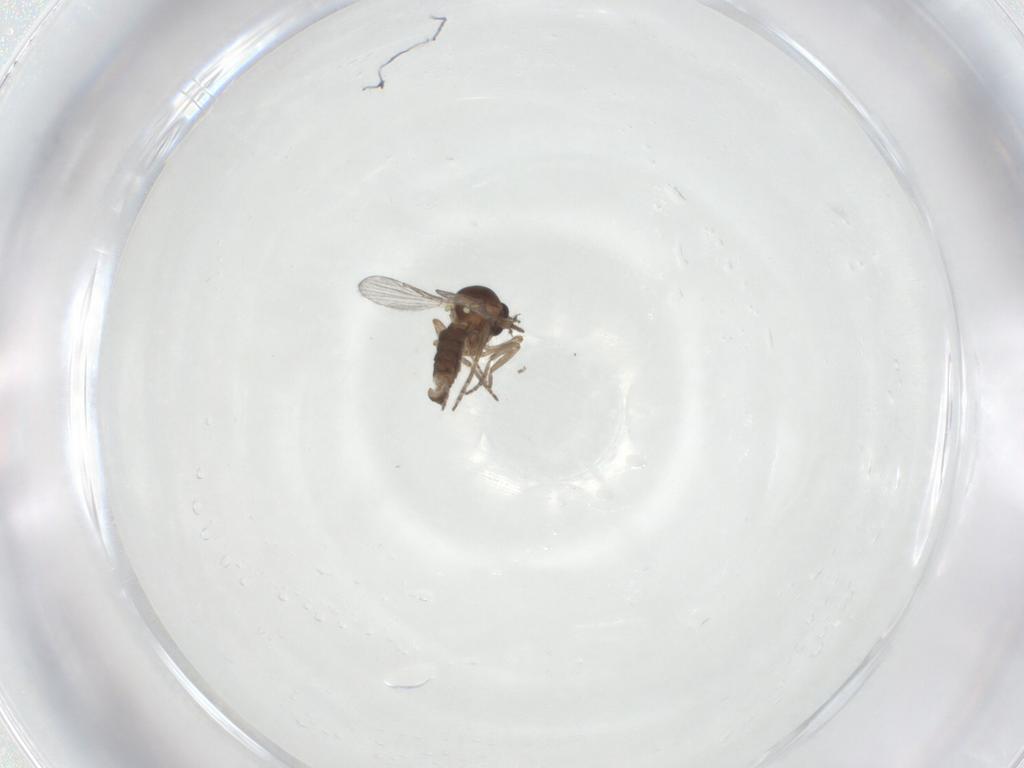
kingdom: Animalia
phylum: Arthropoda
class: Insecta
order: Diptera
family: Ceratopogonidae
